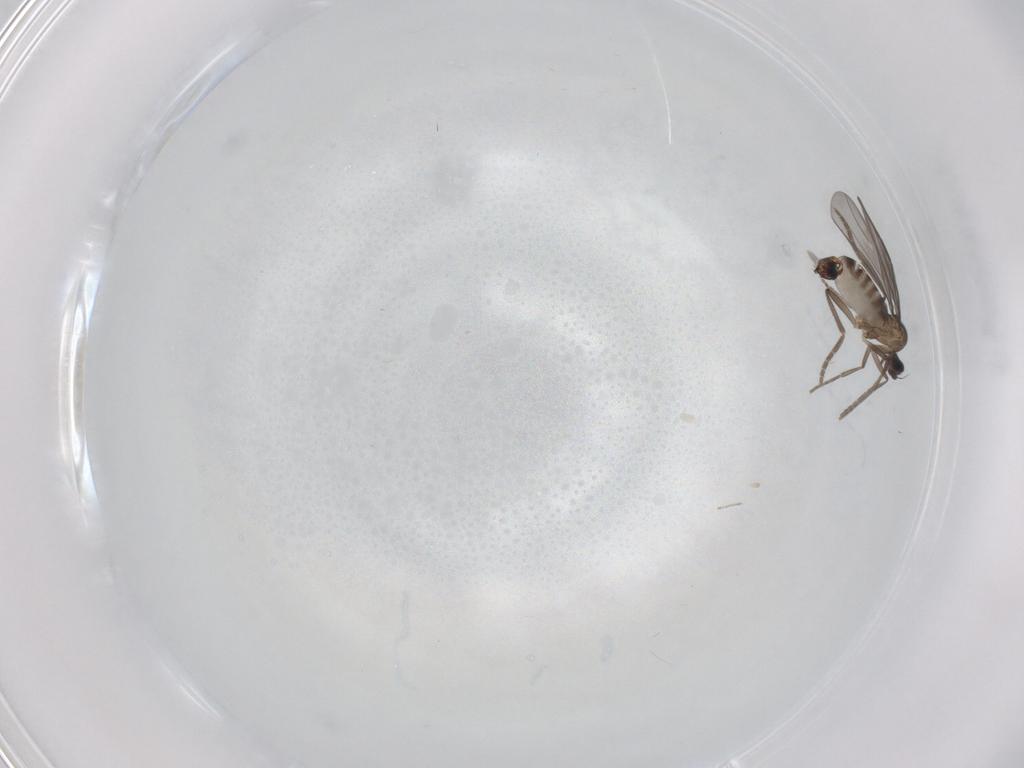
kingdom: Animalia
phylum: Arthropoda
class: Insecta
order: Diptera
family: Phoridae
